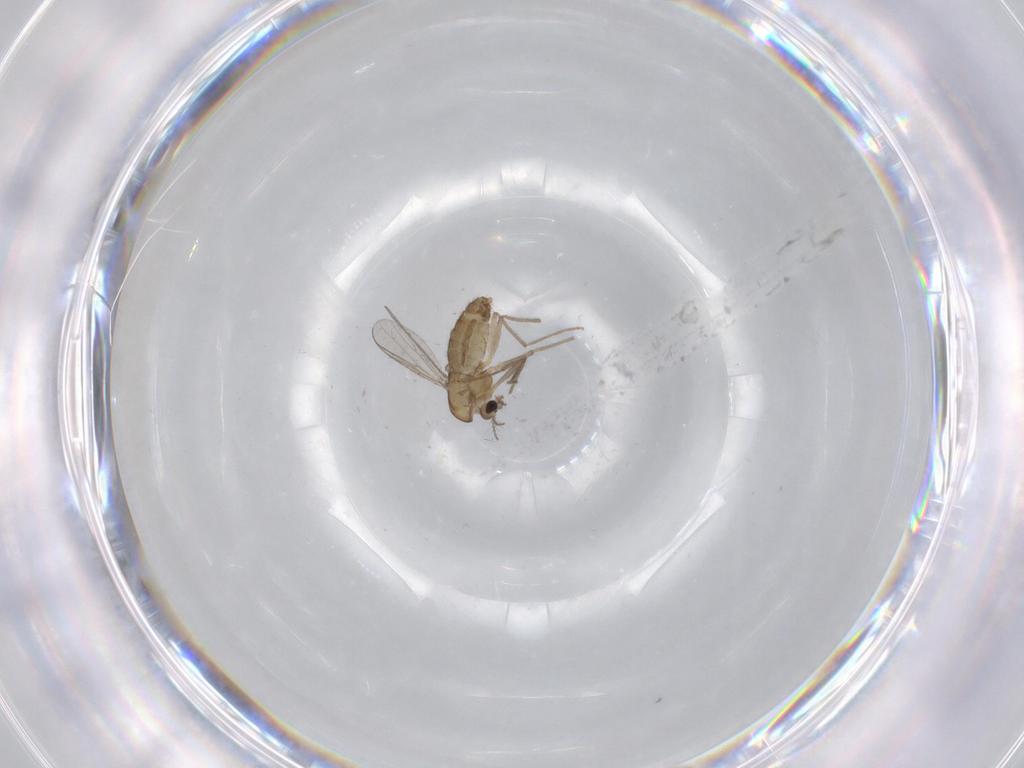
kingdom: Animalia
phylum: Arthropoda
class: Insecta
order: Diptera
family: Chironomidae
